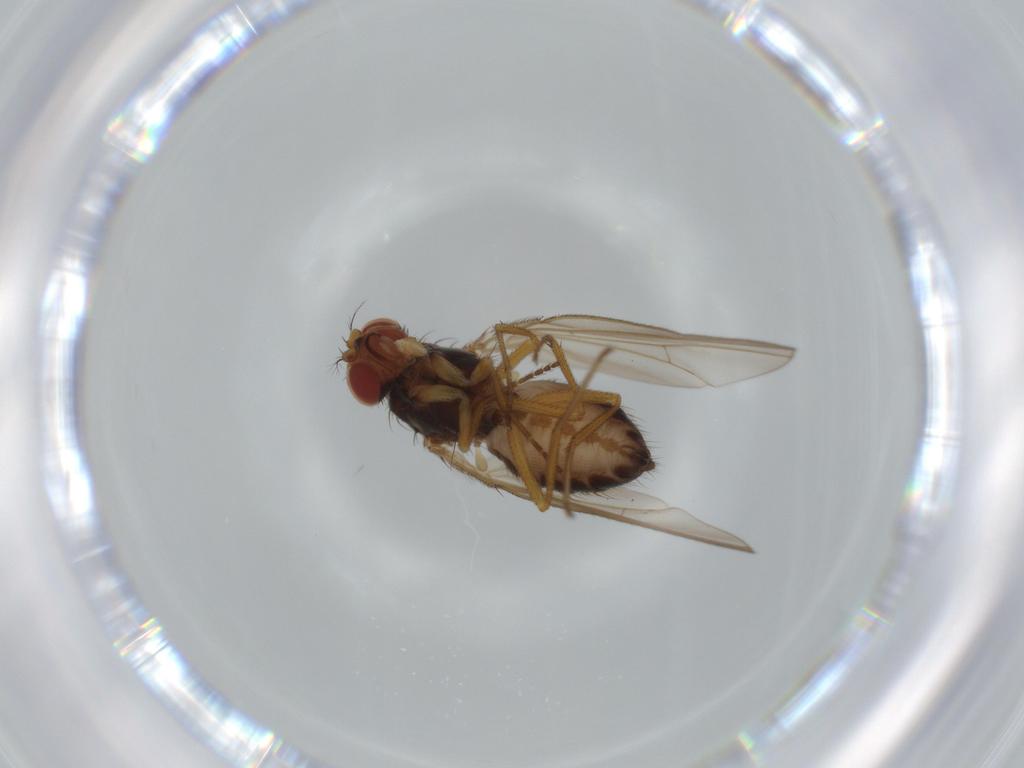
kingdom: Animalia
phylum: Arthropoda
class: Insecta
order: Diptera
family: Drosophilidae
